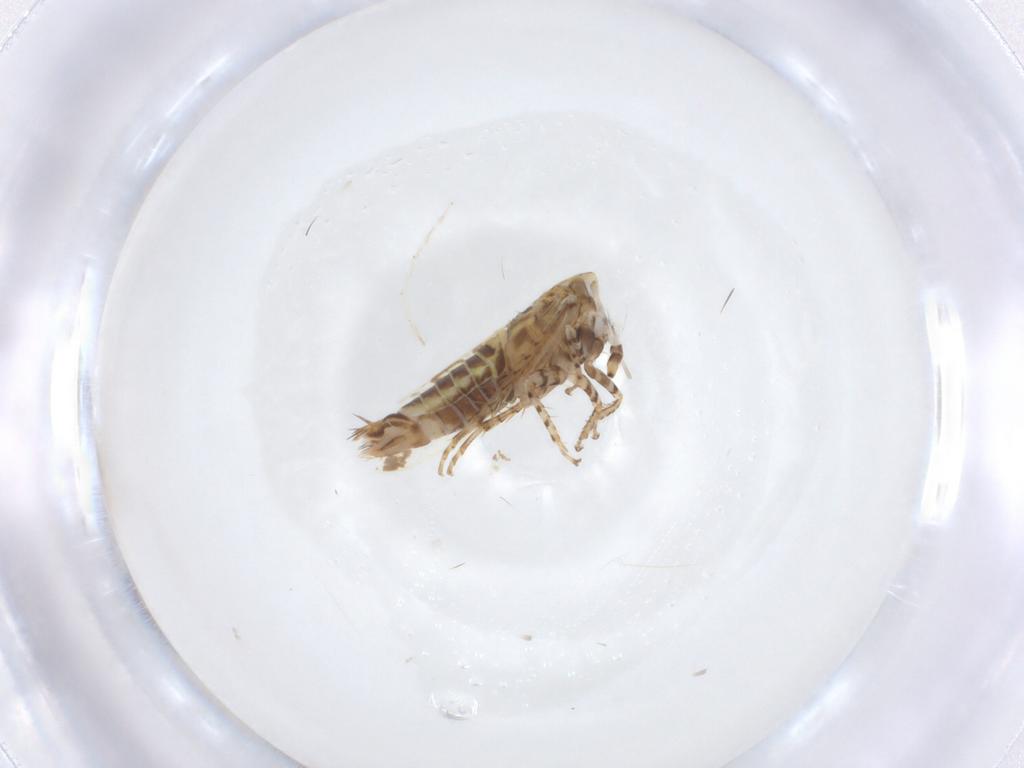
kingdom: Animalia
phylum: Arthropoda
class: Insecta
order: Hemiptera
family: Cicadellidae
